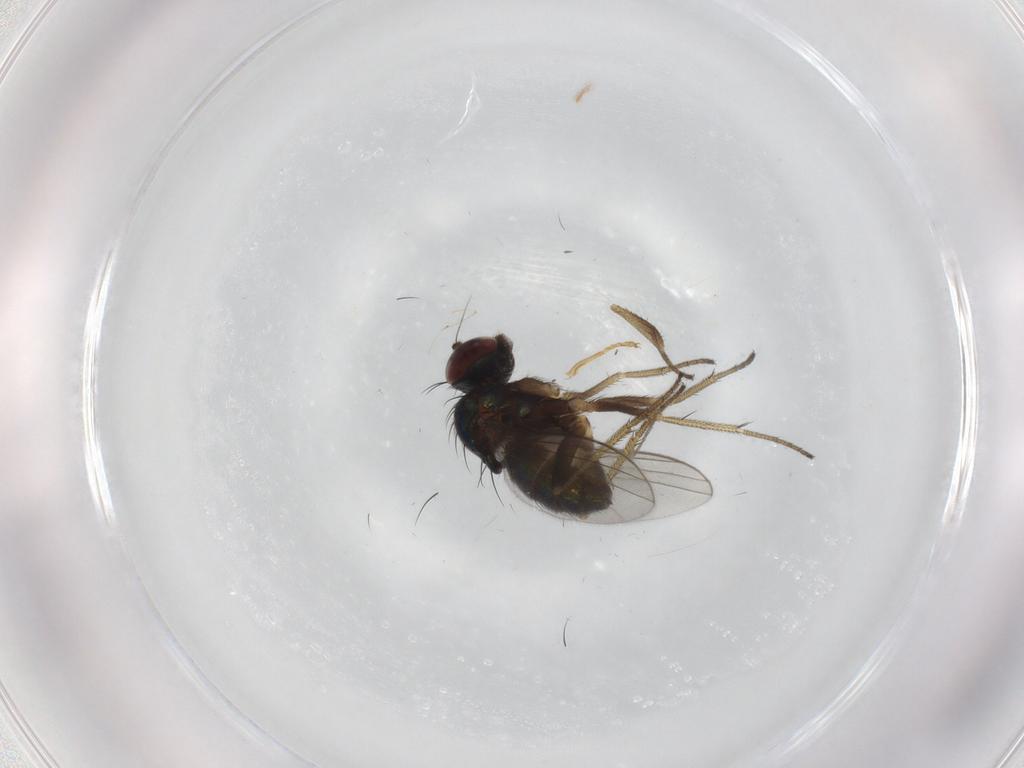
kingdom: Animalia
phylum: Arthropoda
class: Insecta
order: Diptera
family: Dolichopodidae
